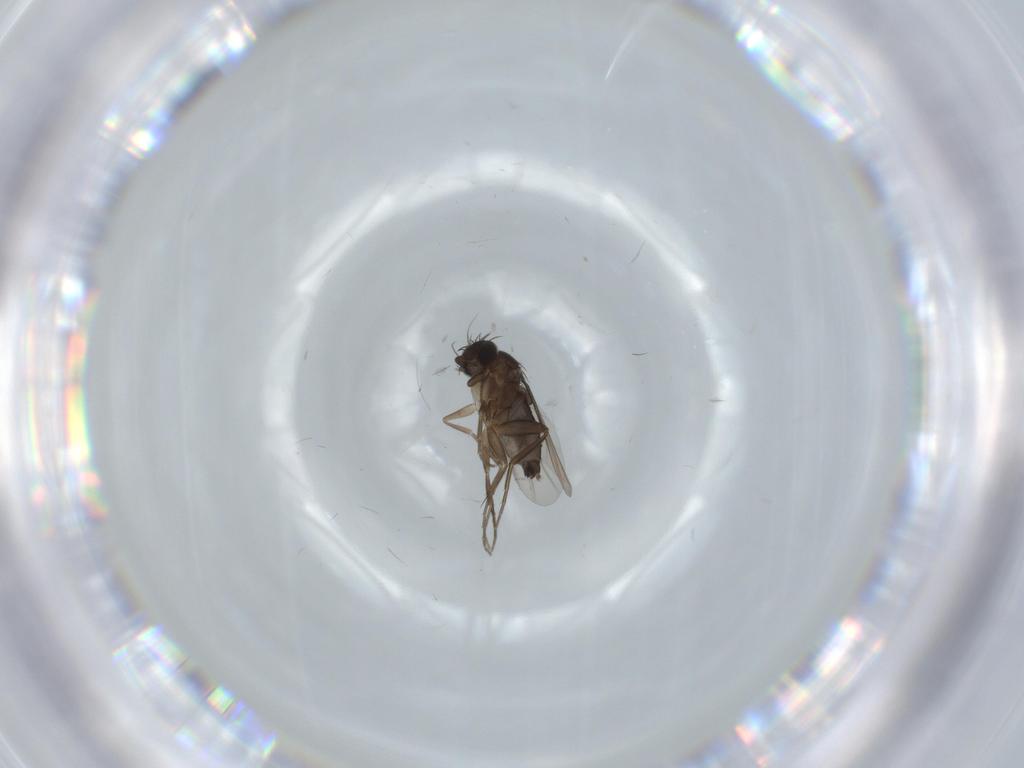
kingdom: Animalia
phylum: Arthropoda
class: Insecta
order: Diptera
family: Phoridae
